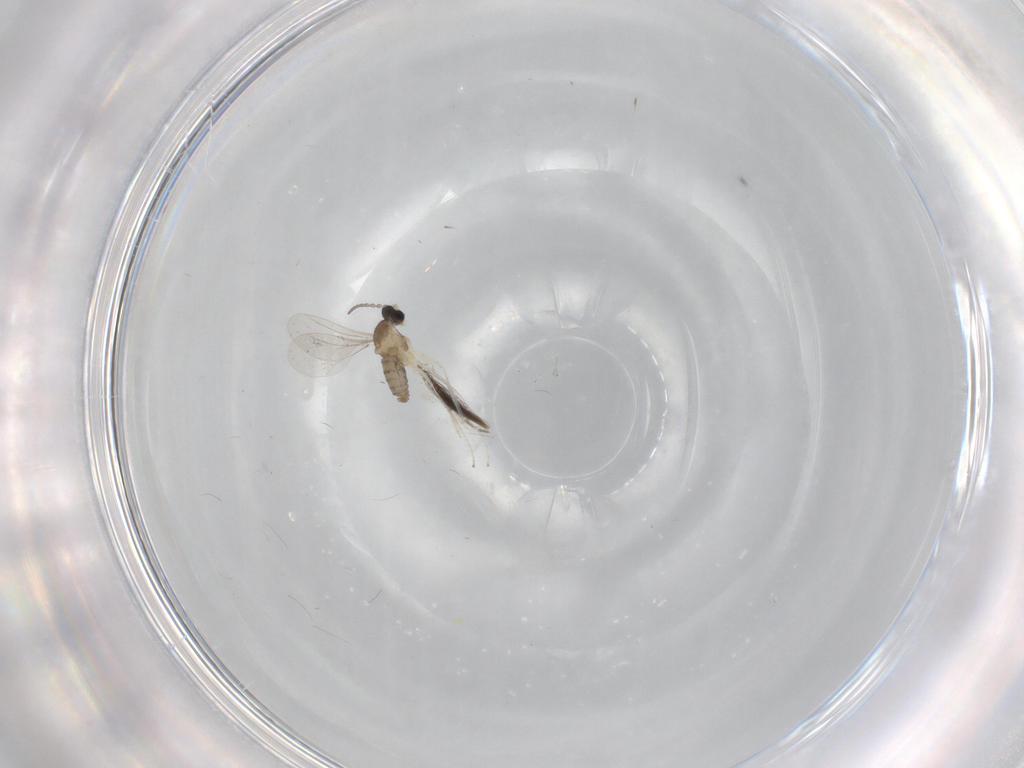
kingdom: Animalia
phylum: Arthropoda
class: Insecta
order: Diptera
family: Cecidomyiidae
